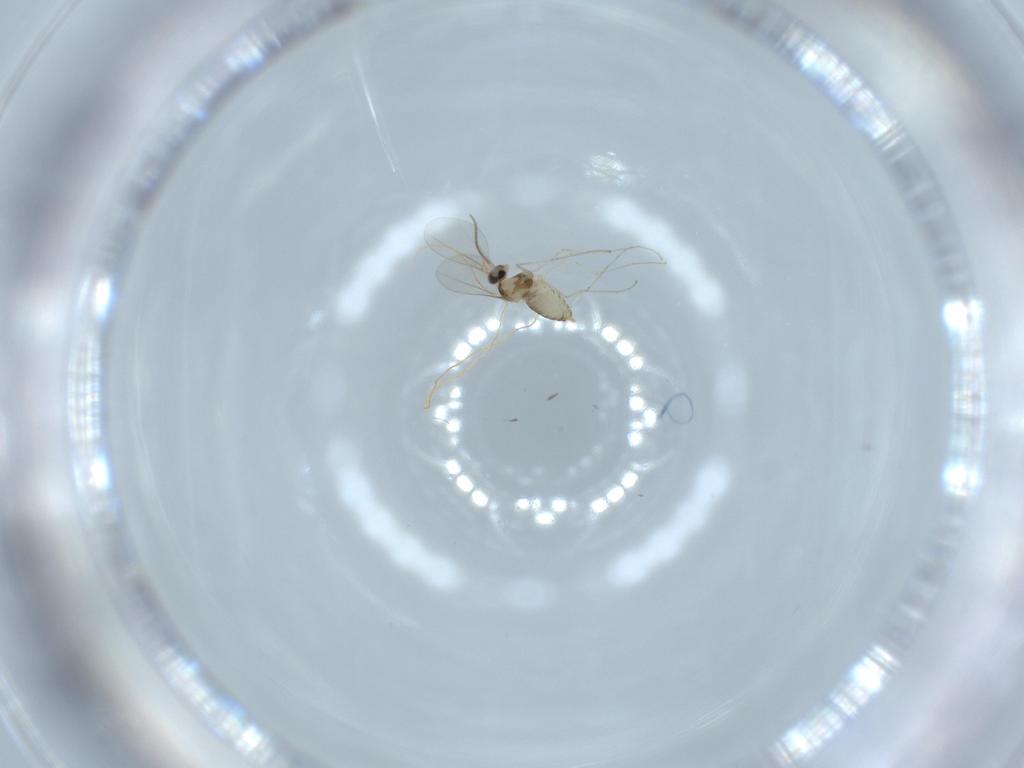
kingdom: Animalia
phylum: Arthropoda
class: Insecta
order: Diptera
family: Cecidomyiidae
